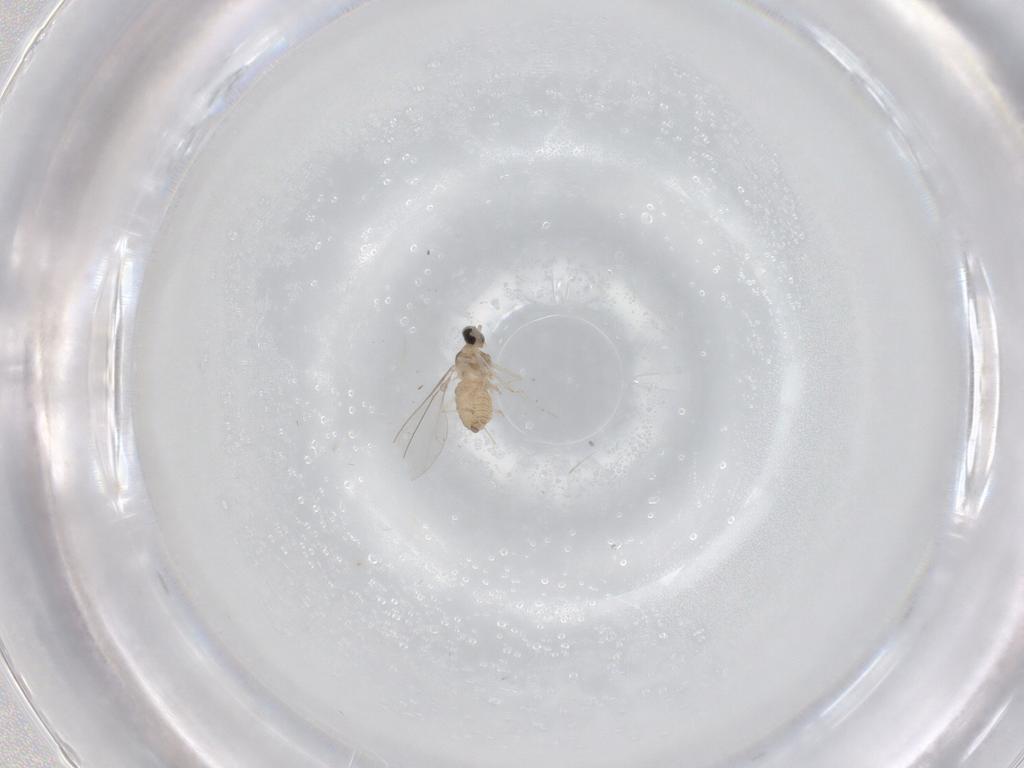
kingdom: Animalia
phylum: Arthropoda
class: Insecta
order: Diptera
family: Cecidomyiidae
